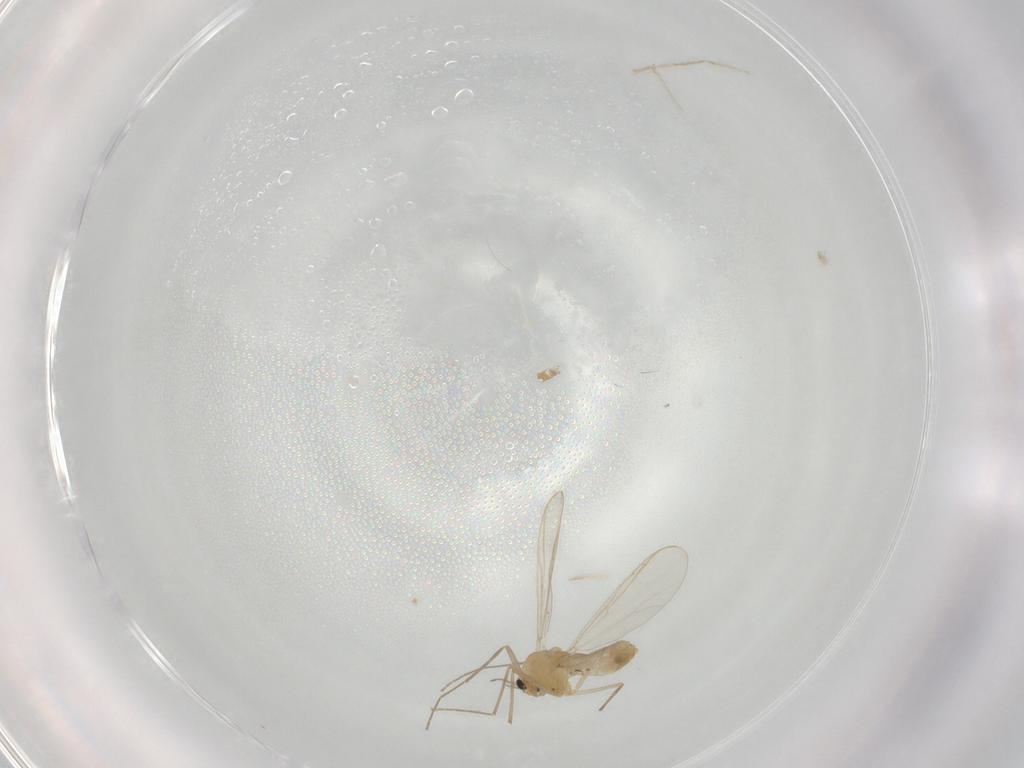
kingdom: Animalia
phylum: Arthropoda
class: Insecta
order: Diptera
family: Chironomidae
